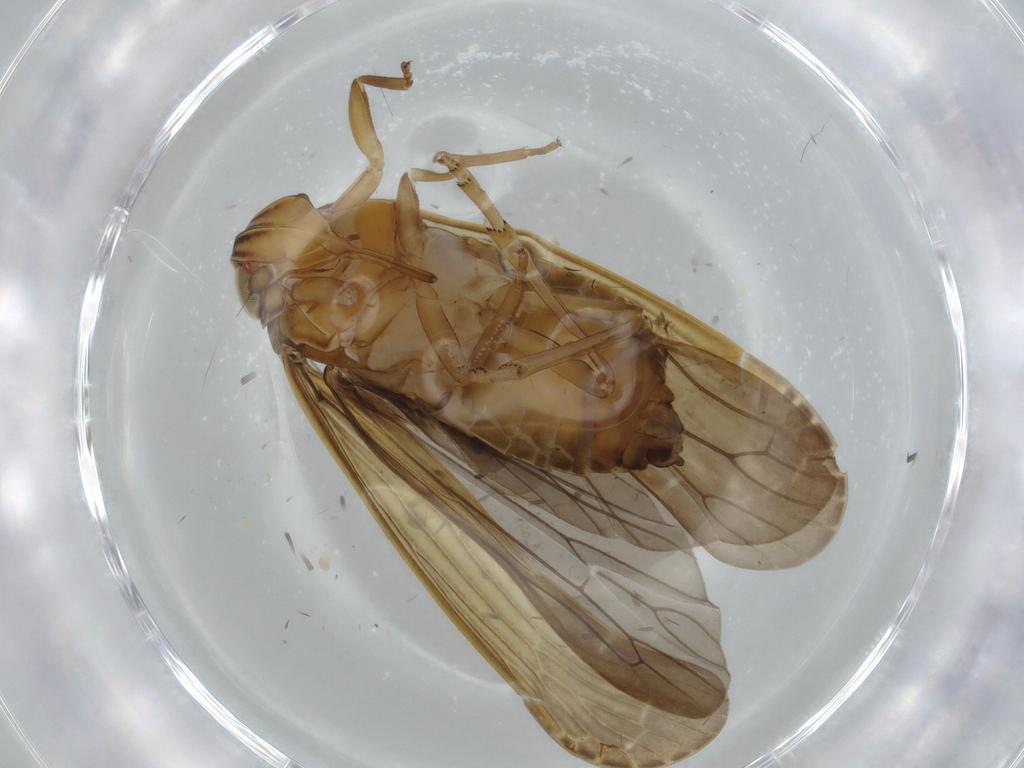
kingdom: Animalia
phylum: Arthropoda
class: Insecta
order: Hemiptera
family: Achilidae
